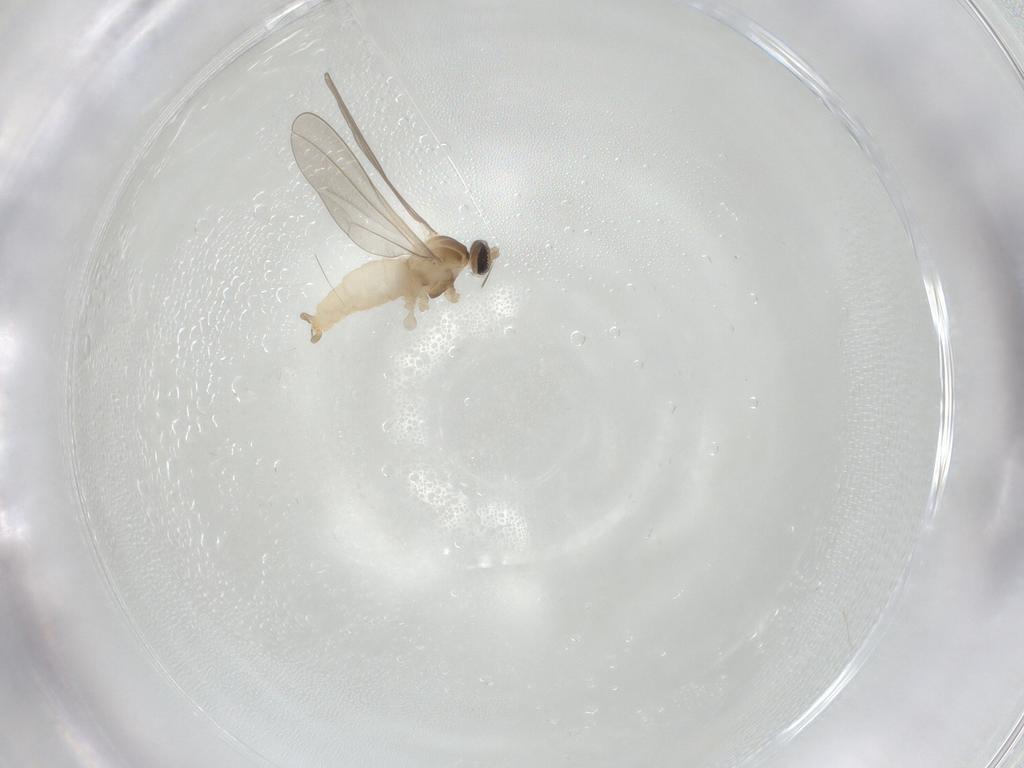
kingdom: Animalia
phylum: Arthropoda
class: Insecta
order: Diptera
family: Cecidomyiidae
